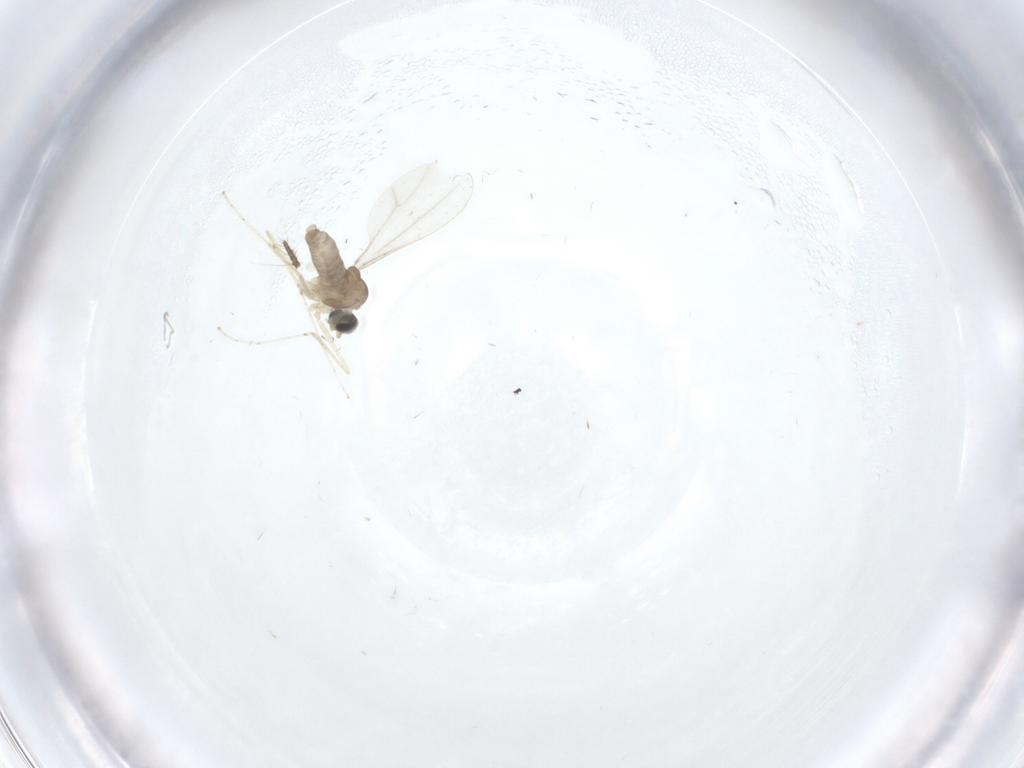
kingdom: Animalia
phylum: Arthropoda
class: Insecta
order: Diptera
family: Cecidomyiidae
